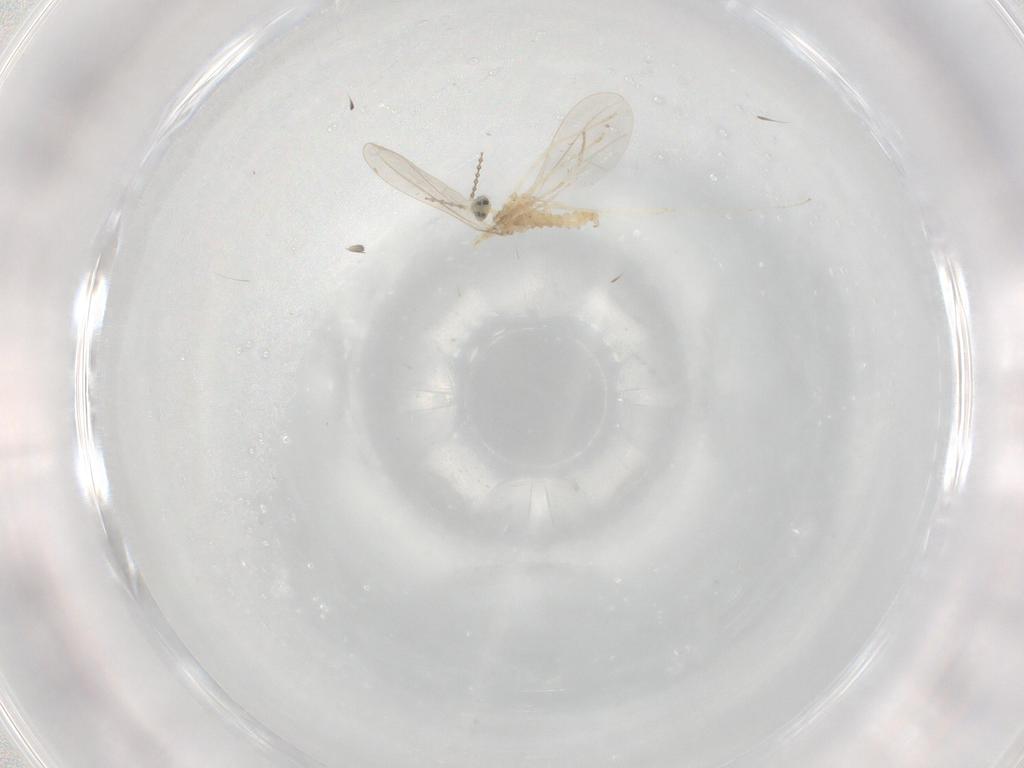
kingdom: Animalia
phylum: Arthropoda
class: Insecta
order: Diptera
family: Cecidomyiidae
